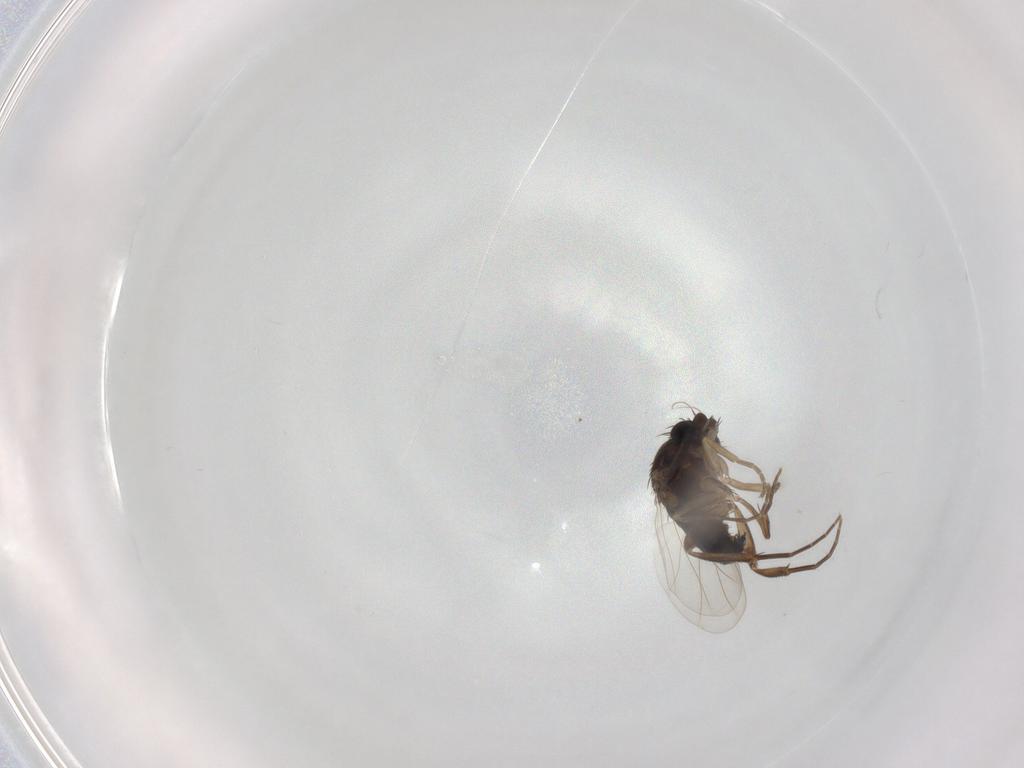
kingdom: Animalia
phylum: Arthropoda
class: Insecta
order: Diptera
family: Phoridae
